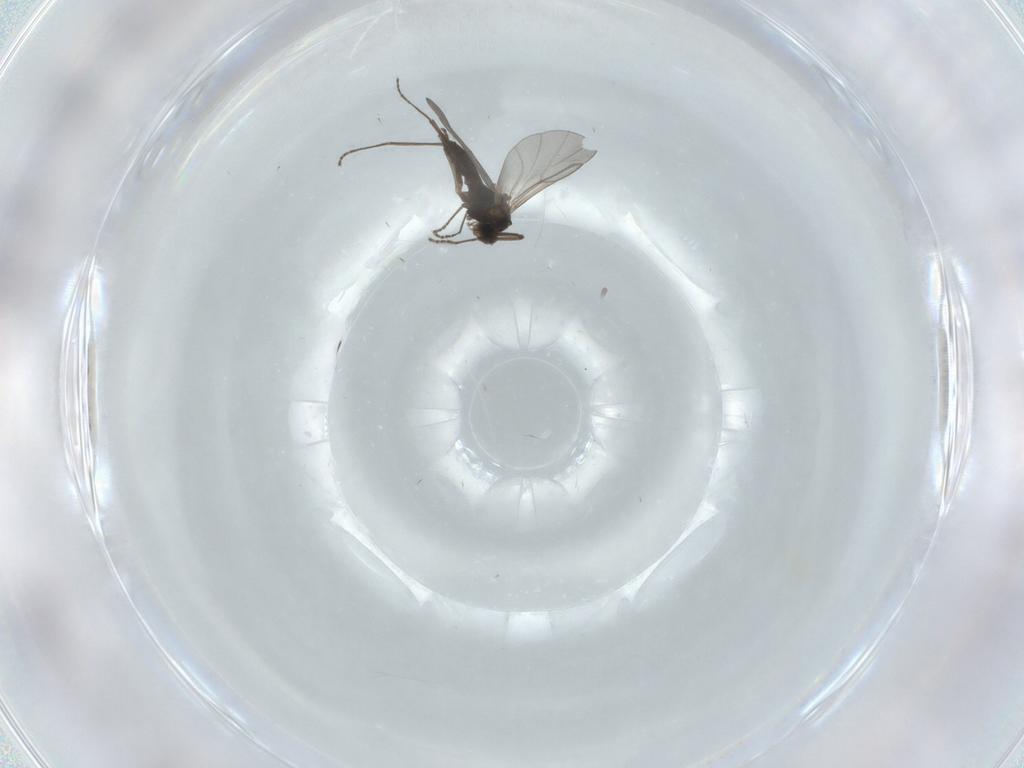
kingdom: Animalia
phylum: Arthropoda
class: Insecta
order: Diptera
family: Cecidomyiidae
